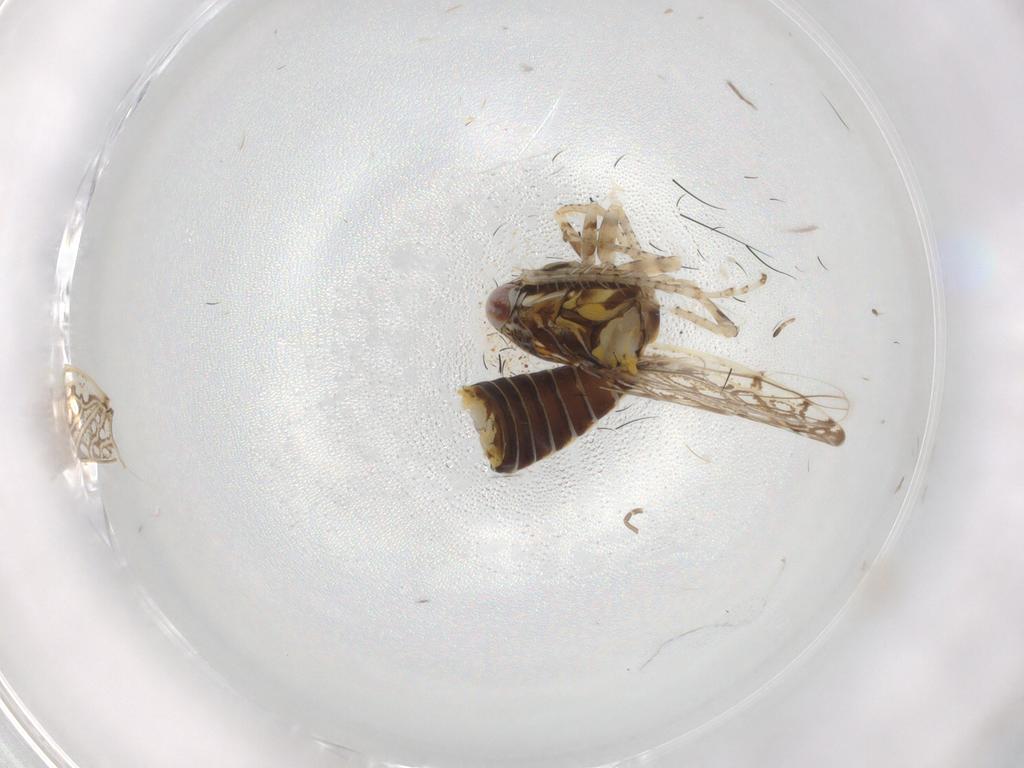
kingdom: Animalia
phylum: Arthropoda
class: Insecta
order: Hemiptera
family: Cicadellidae
